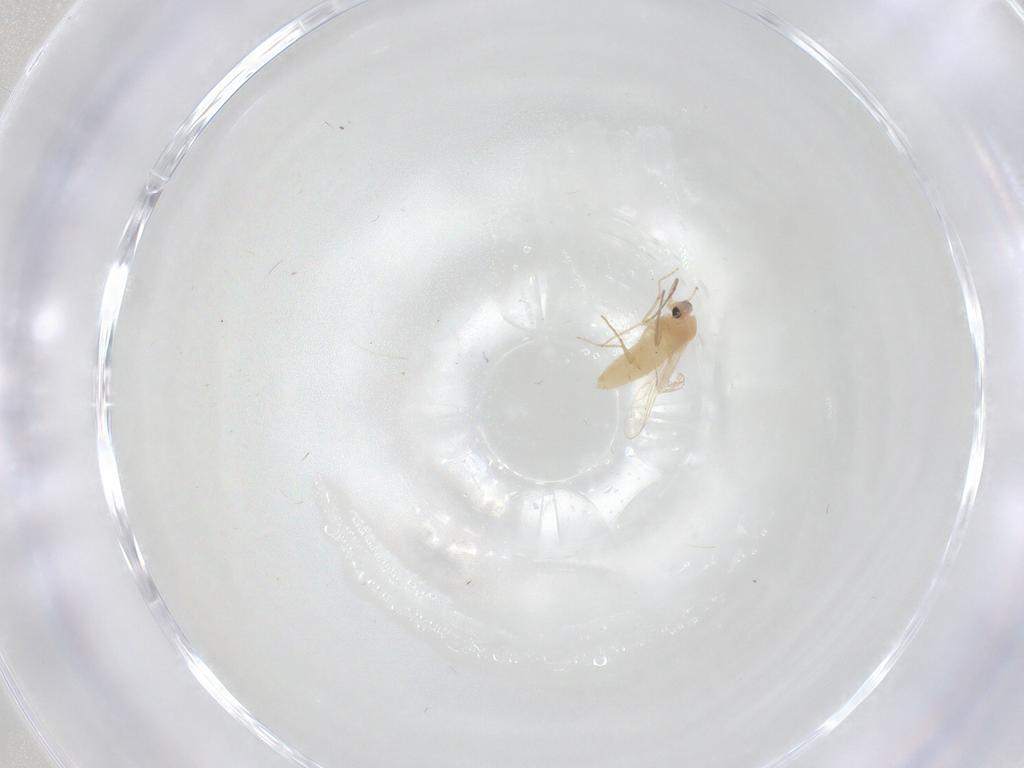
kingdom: Animalia
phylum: Arthropoda
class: Insecta
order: Diptera
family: Chironomidae
